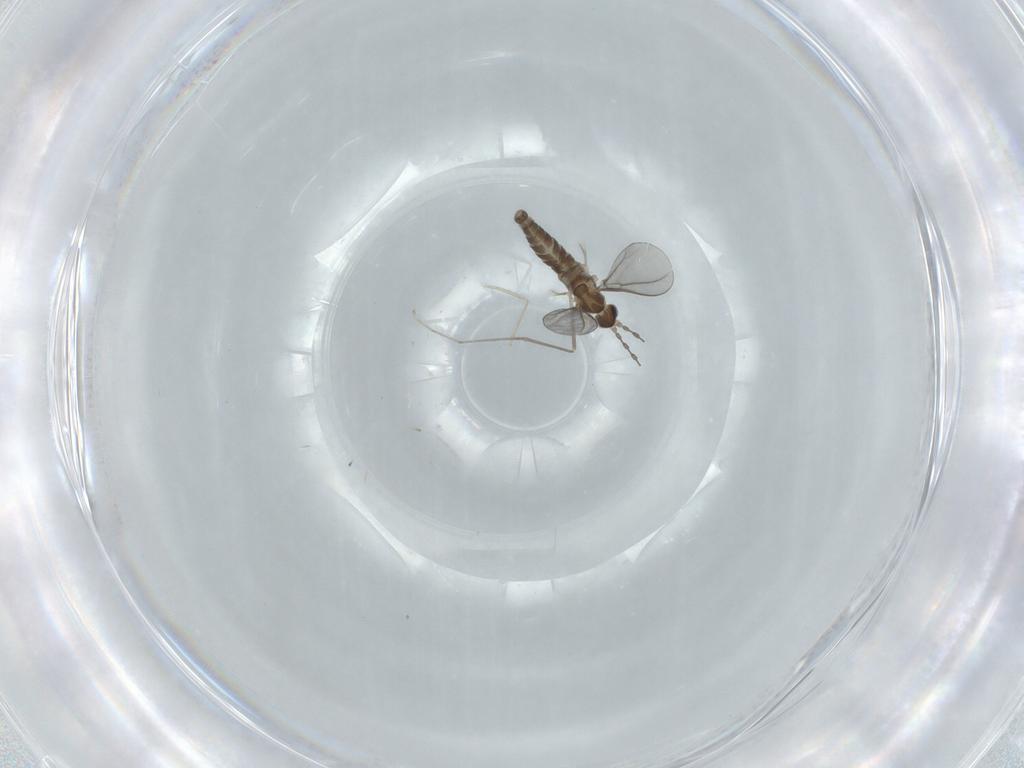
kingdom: Animalia
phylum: Arthropoda
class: Insecta
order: Diptera
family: Cecidomyiidae
